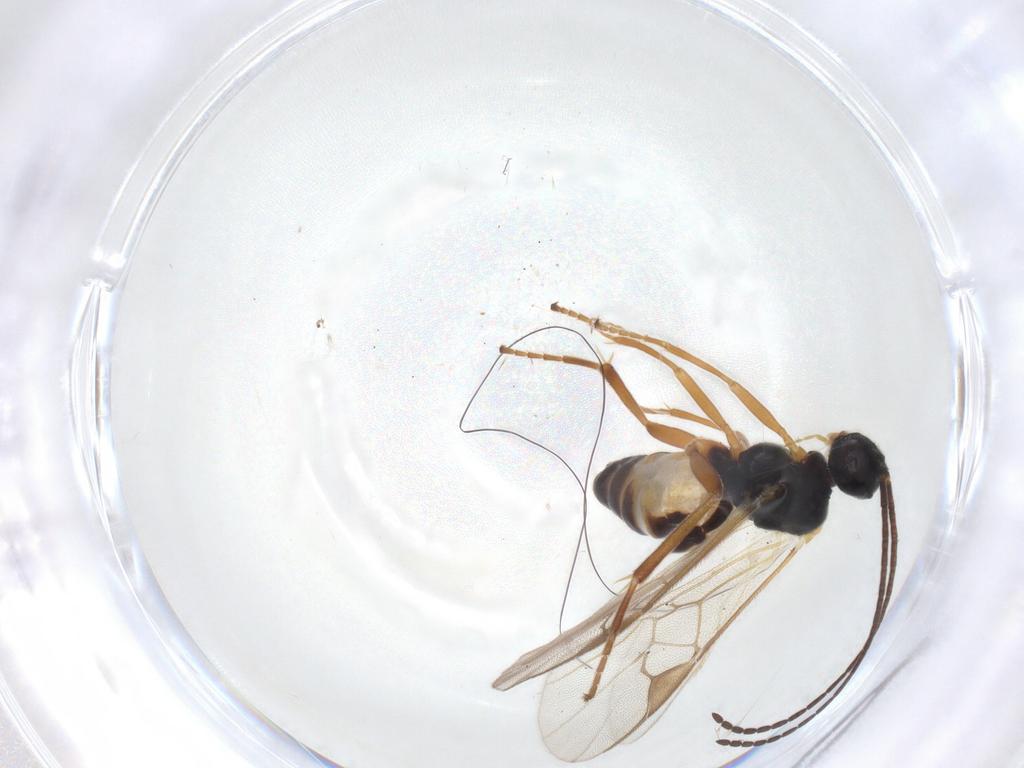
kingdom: Animalia
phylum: Arthropoda
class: Insecta
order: Hymenoptera
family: Braconidae
